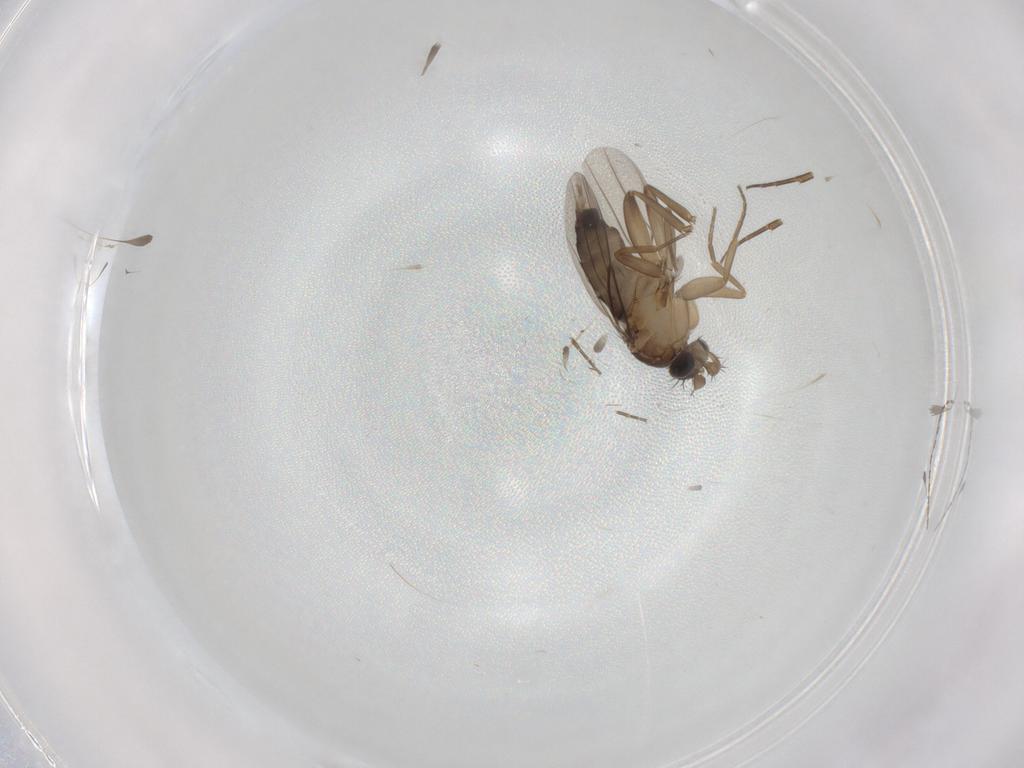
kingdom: Animalia
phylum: Arthropoda
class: Insecta
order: Diptera
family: Cecidomyiidae
